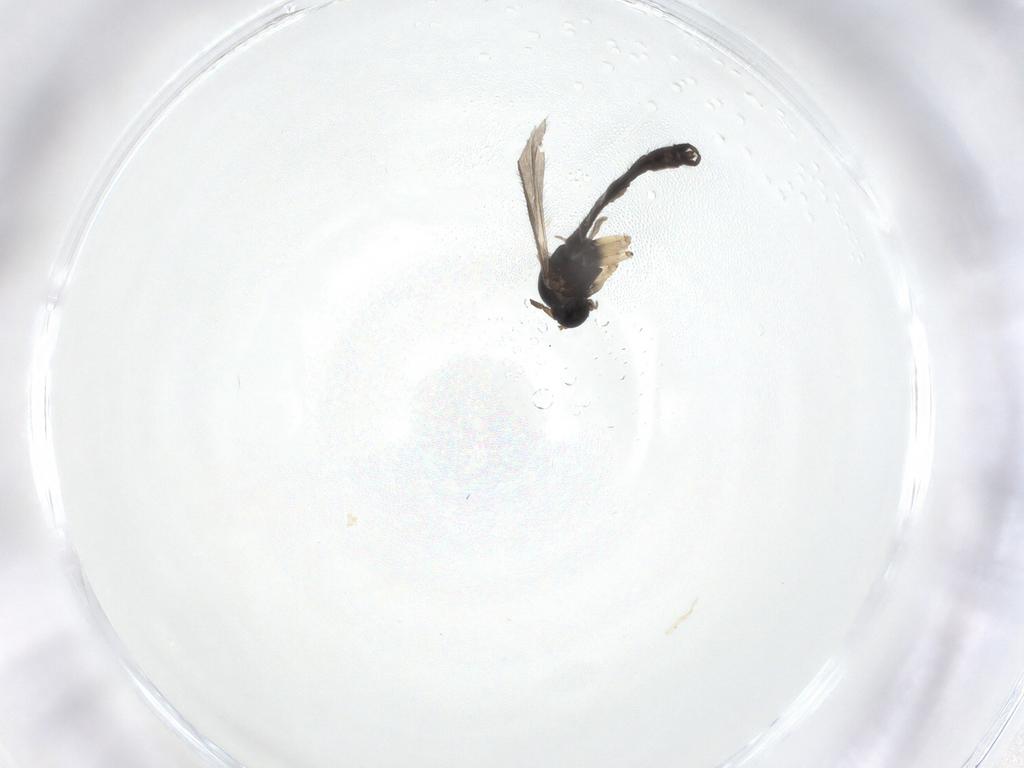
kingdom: Animalia
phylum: Arthropoda
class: Insecta
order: Diptera
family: Sciaridae
